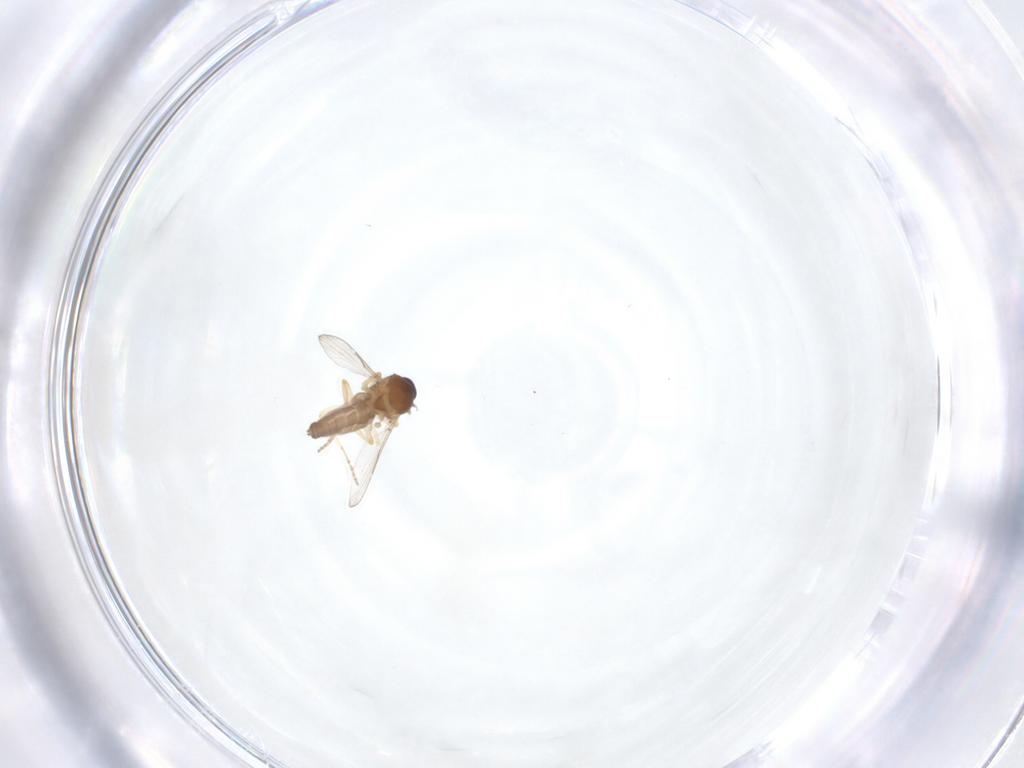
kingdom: Animalia
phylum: Arthropoda
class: Insecta
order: Diptera
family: Ceratopogonidae
